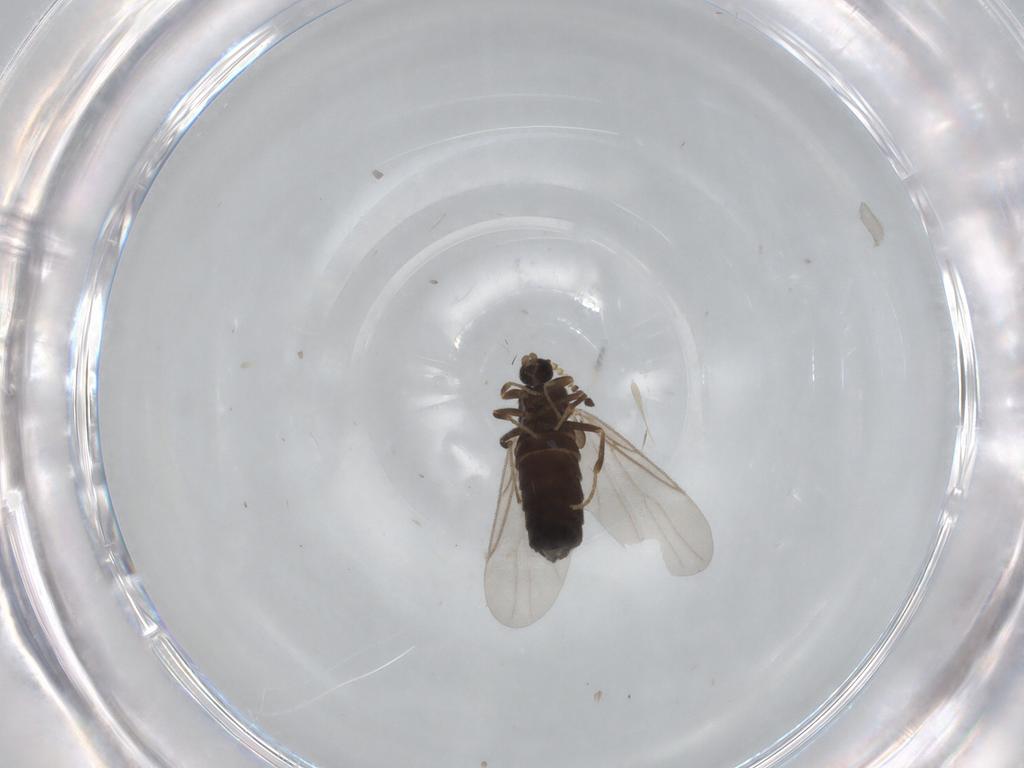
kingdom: Animalia
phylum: Arthropoda
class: Insecta
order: Diptera
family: Scatopsidae
